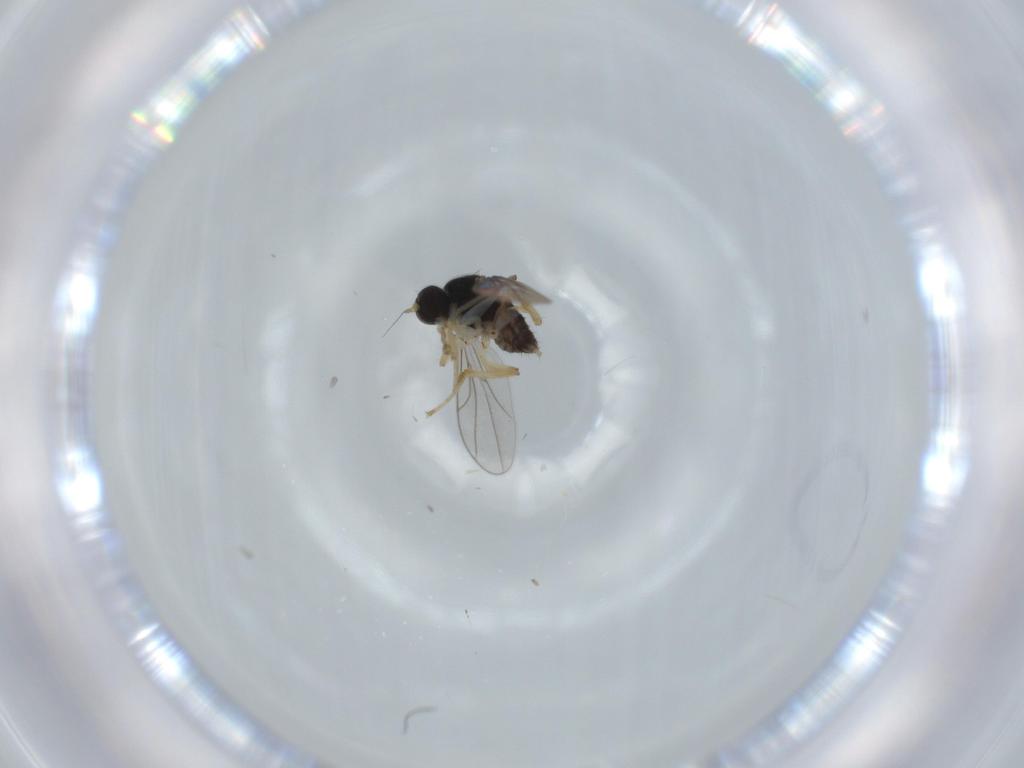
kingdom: Animalia
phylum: Arthropoda
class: Insecta
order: Diptera
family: Hybotidae
